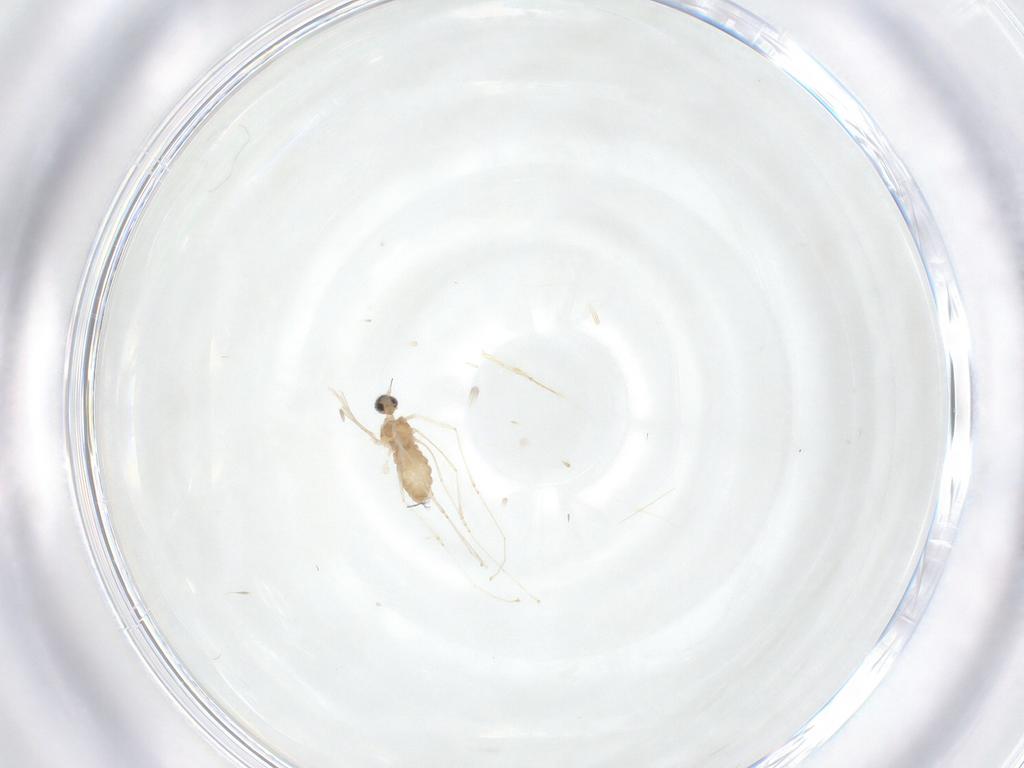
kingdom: Animalia
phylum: Arthropoda
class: Insecta
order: Diptera
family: Cecidomyiidae
